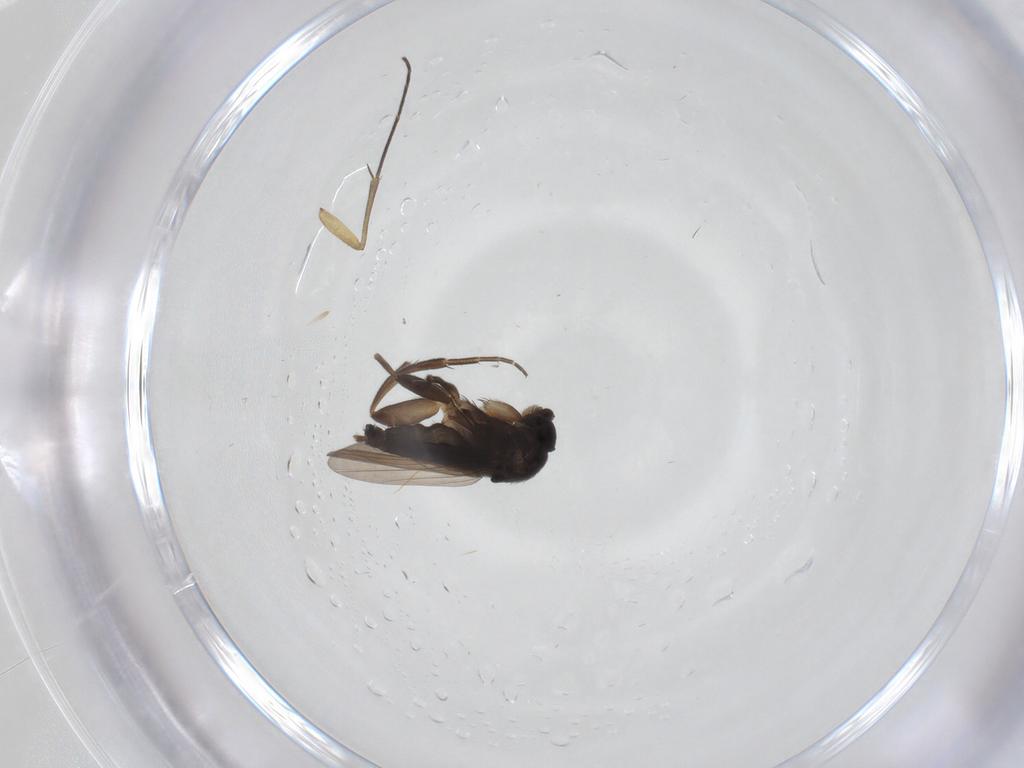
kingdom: Animalia
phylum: Arthropoda
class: Insecta
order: Diptera
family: Phoridae
